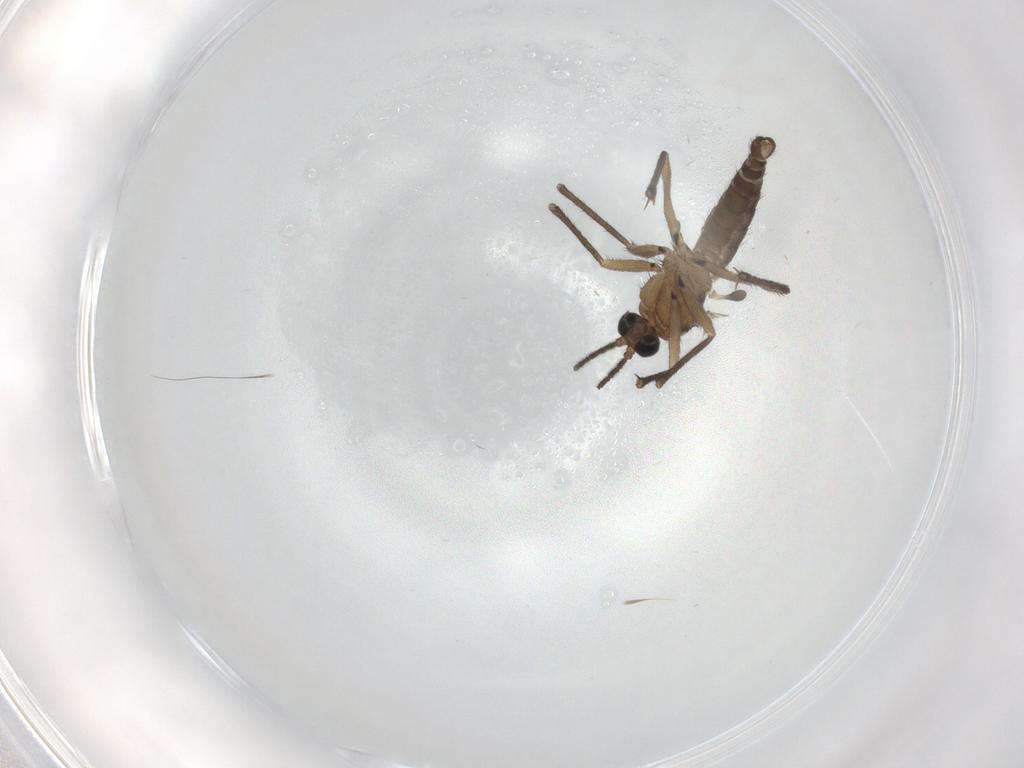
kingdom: Animalia
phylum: Arthropoda
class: Insecta
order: Diptera
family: Sciaridae
